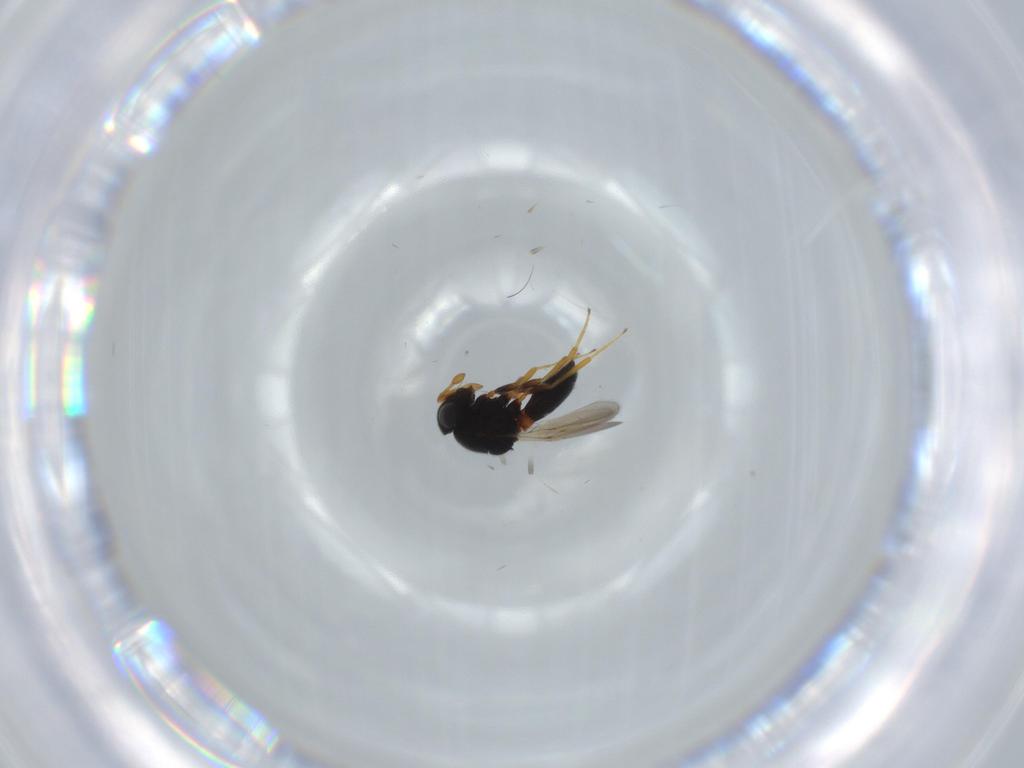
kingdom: Animalia
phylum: Arthropoda
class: Insecta
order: Hymenoptera
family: Scelionidae
